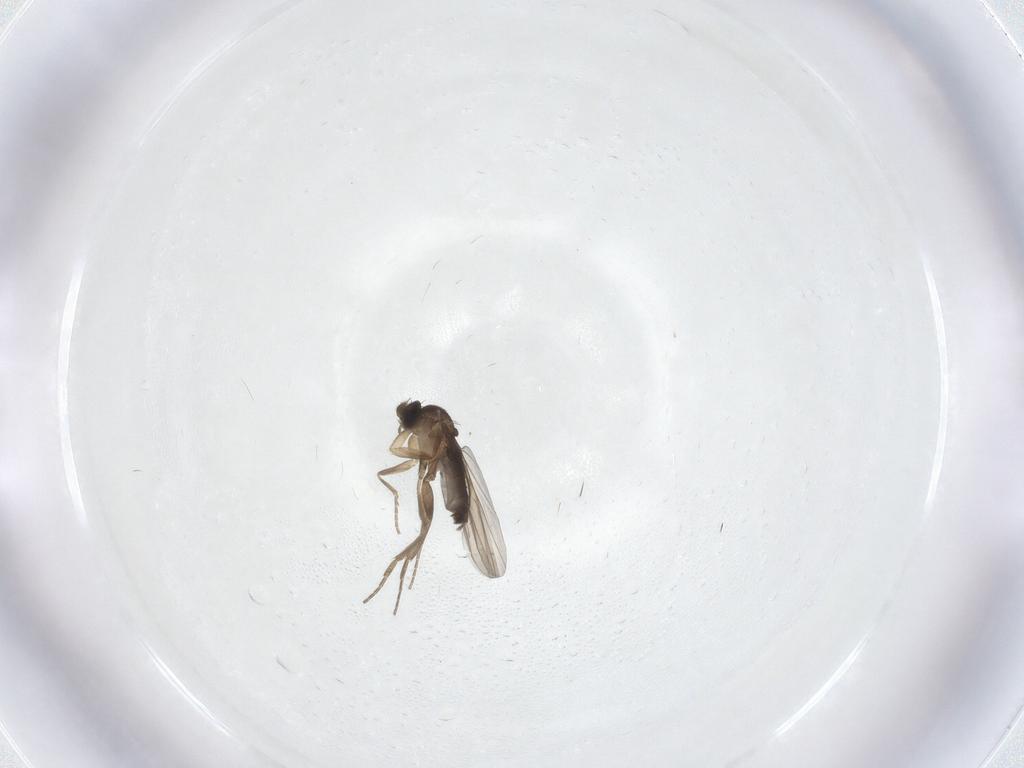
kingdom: Animalia
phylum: Arthropoda
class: Insecta
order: Diptera
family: Phoridae
